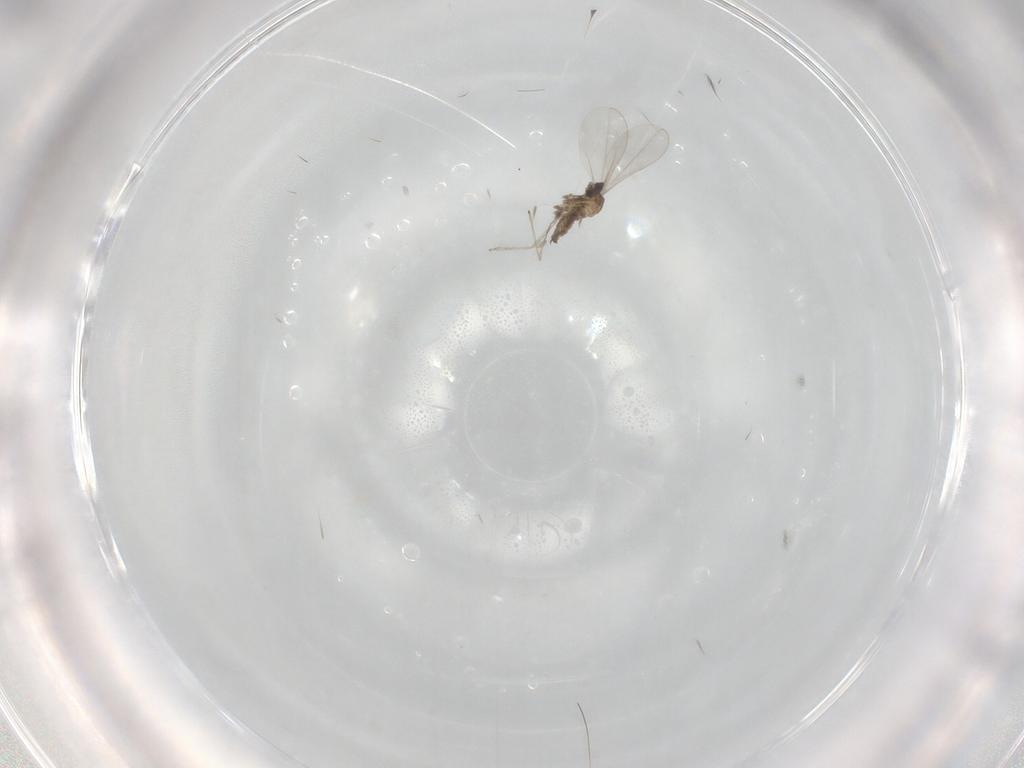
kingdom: Animalia
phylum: Arthropoda
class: Insecta
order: Diptera
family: Cecidomyiidae
